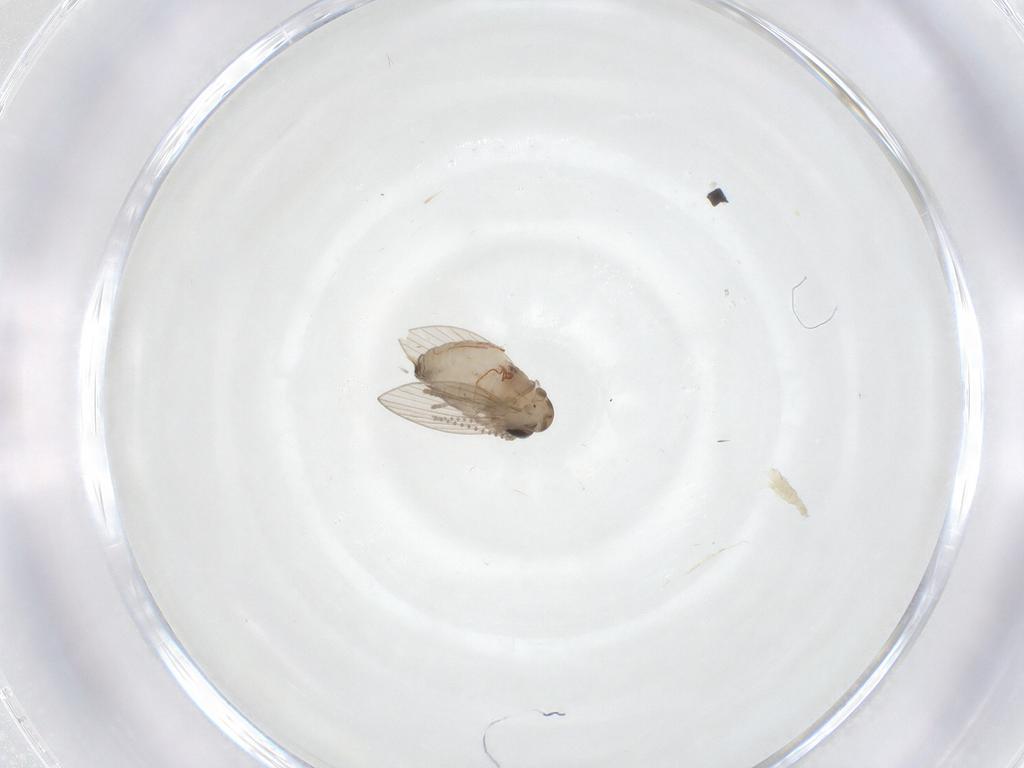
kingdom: Animalia
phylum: Arthropoda
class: Insecta
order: Diptera
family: Psychodidae
